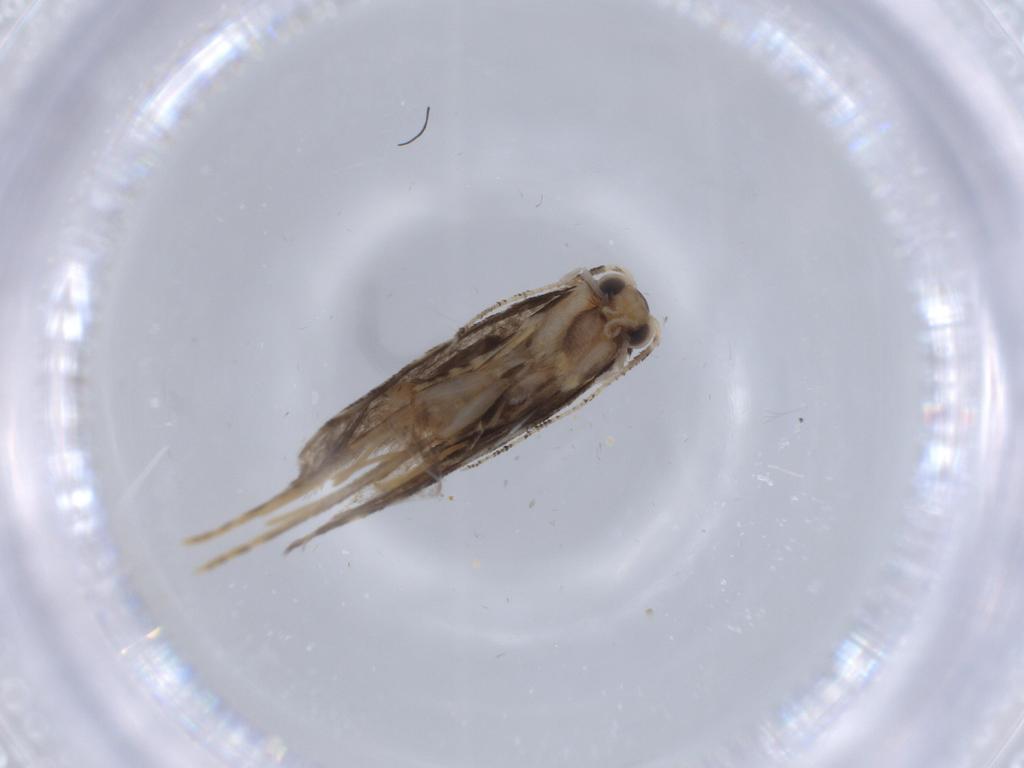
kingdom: Animalia
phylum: Arthropoda
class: Insecta
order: Lepidoptera
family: Tineidae
